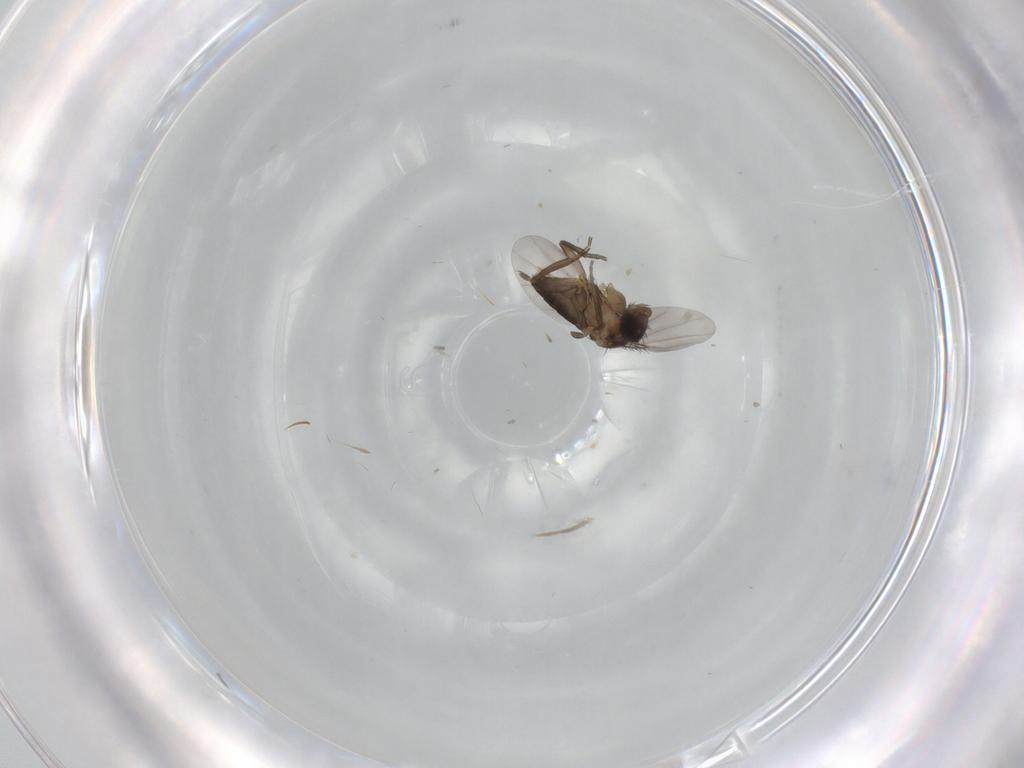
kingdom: Animalia
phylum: Arthropoda
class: Insecta
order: Diptera
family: Phoridae
